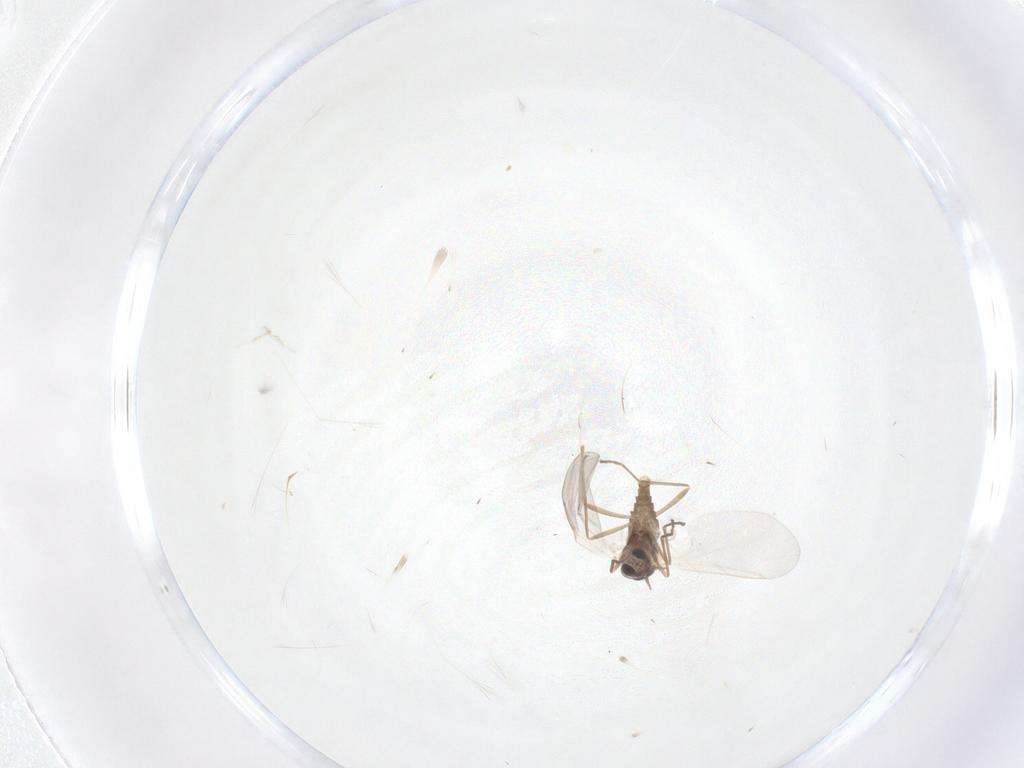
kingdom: Animalia
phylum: Arthropoda
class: Insecta
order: Diptera
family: Cecidomyiidae
